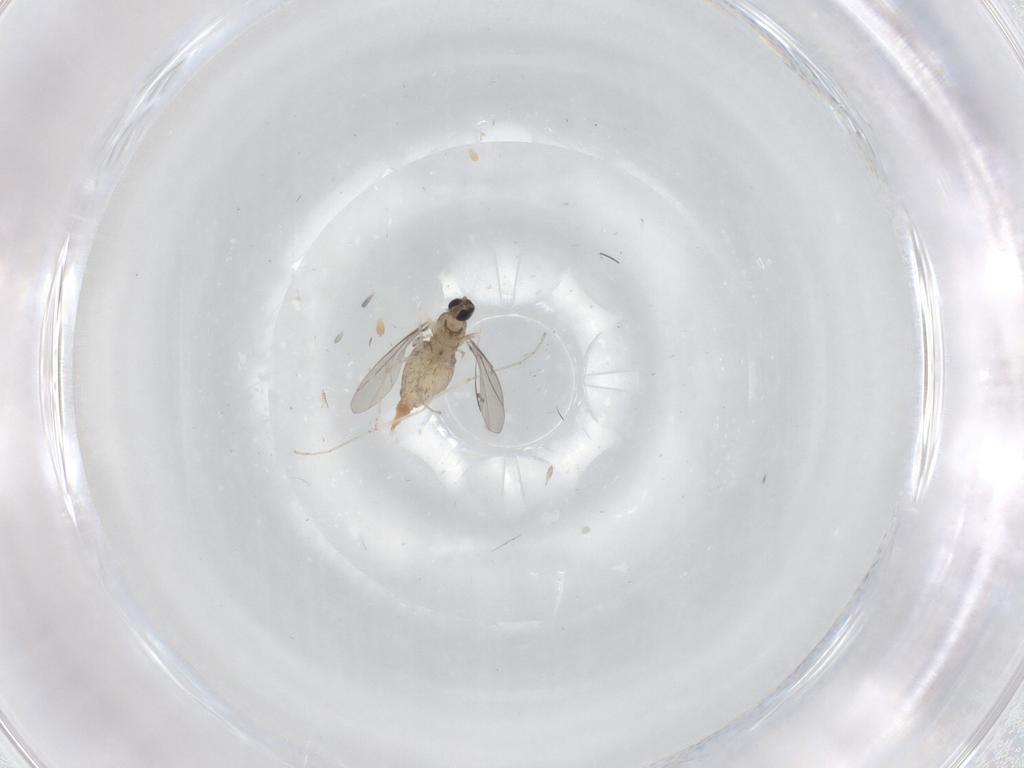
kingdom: Animalia
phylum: Arthropoda
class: Insecta
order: Diptera
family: Cecidomyiidae
